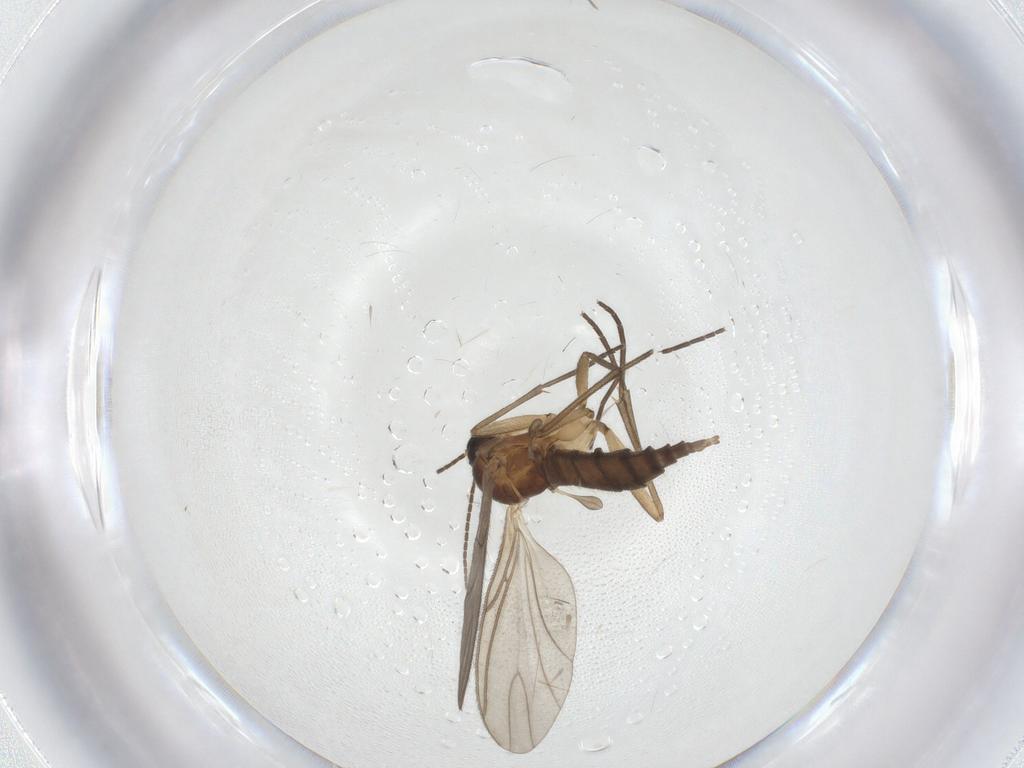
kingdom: Animalia
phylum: Arthropoda
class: Insecta
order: Diptera
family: Sciaridae
